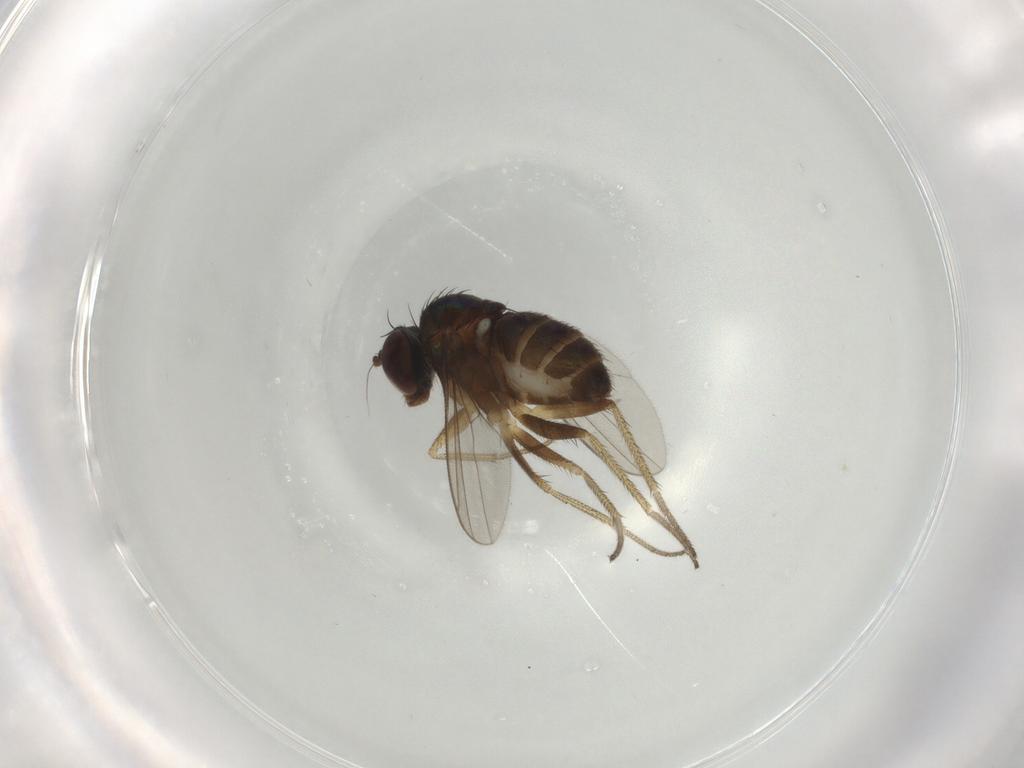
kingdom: Animalia
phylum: Arthropoda
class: Insecta
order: Diptera
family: Sciaridae
